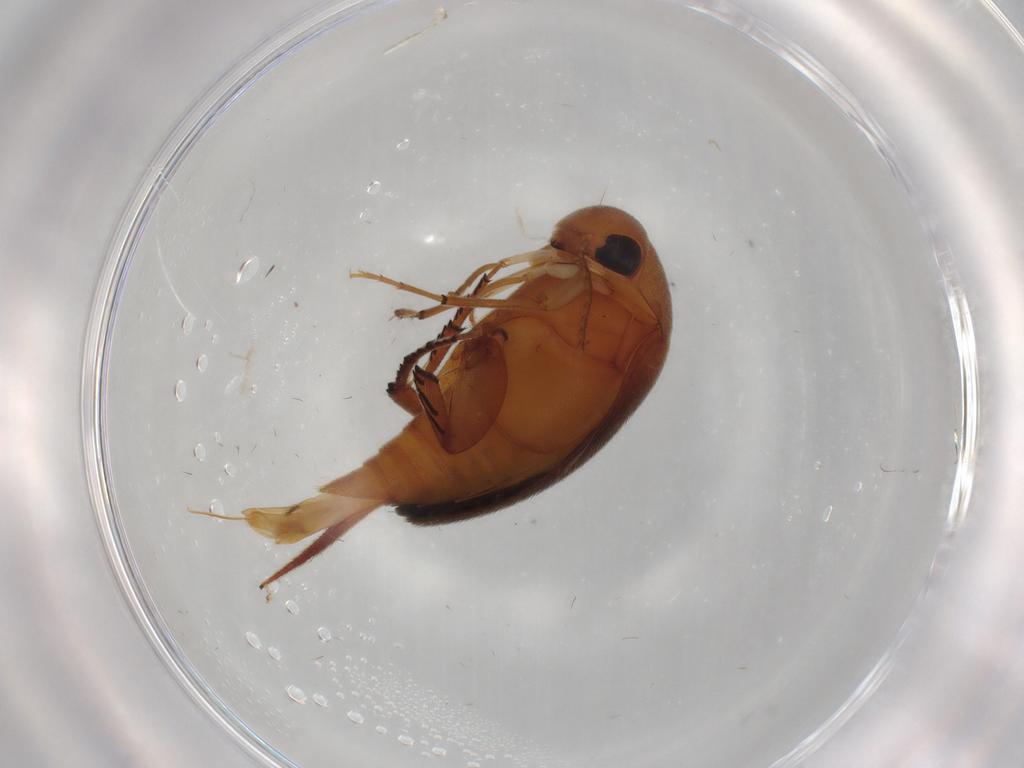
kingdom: Animalia
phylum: Arthropoda
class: Insecta
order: Coleoptera
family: Mordellidae
